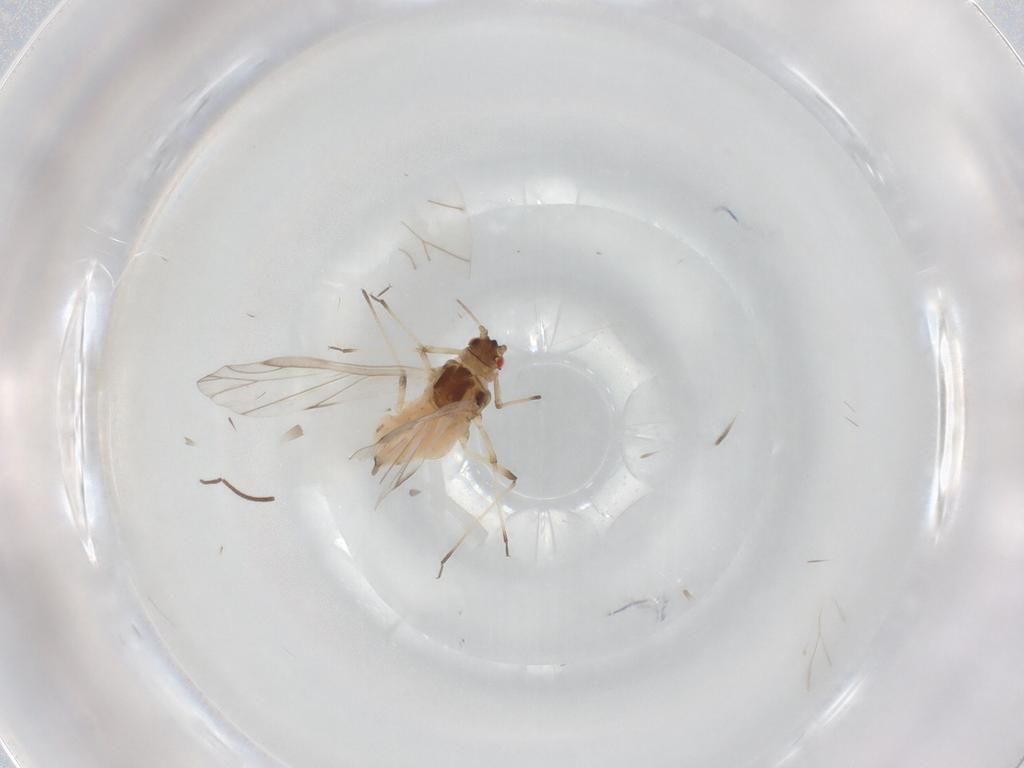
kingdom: Animalia
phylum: Arthropoda
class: Insecta
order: Hemiptera
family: Aphididae
